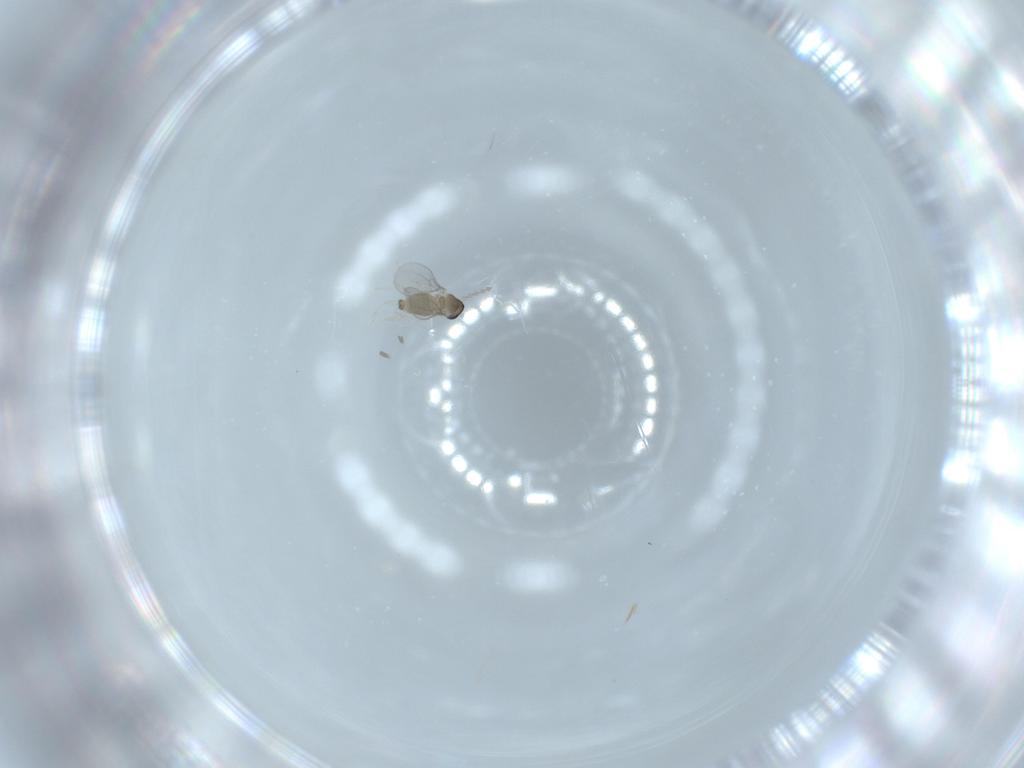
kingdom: Animalia
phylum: Arthropoda
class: Insecta
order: Diptera
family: Cecidomyiidae
